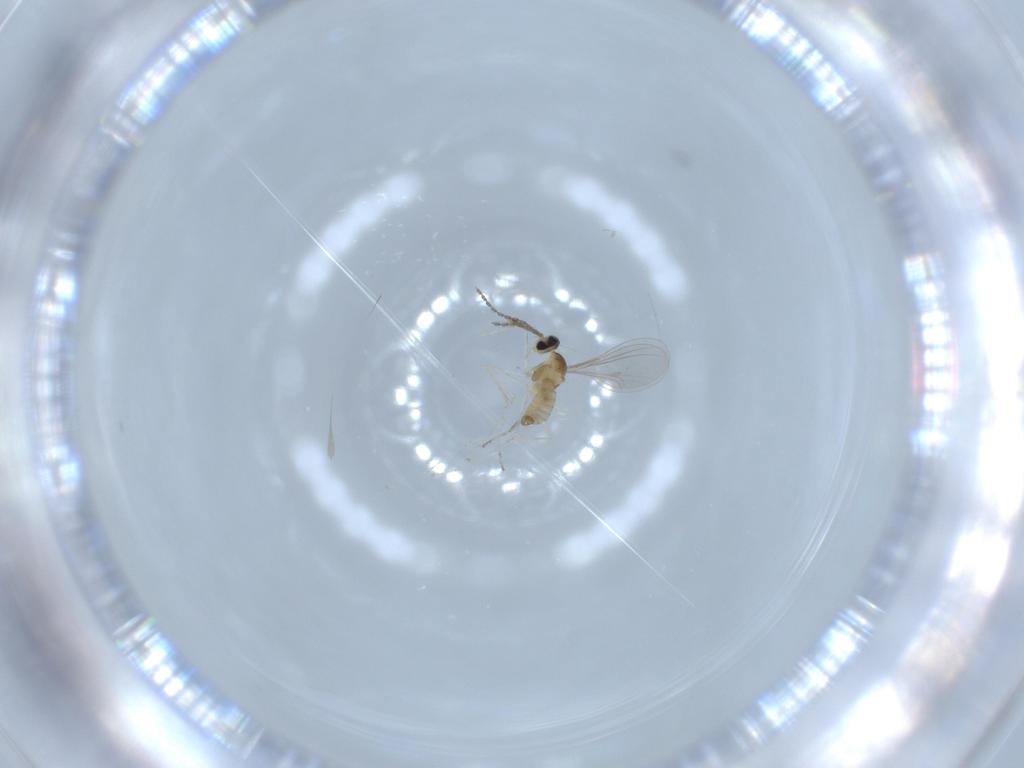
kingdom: Animalia
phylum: Arthropoda
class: Insecta
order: Diptera
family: Cecidomyiidae
